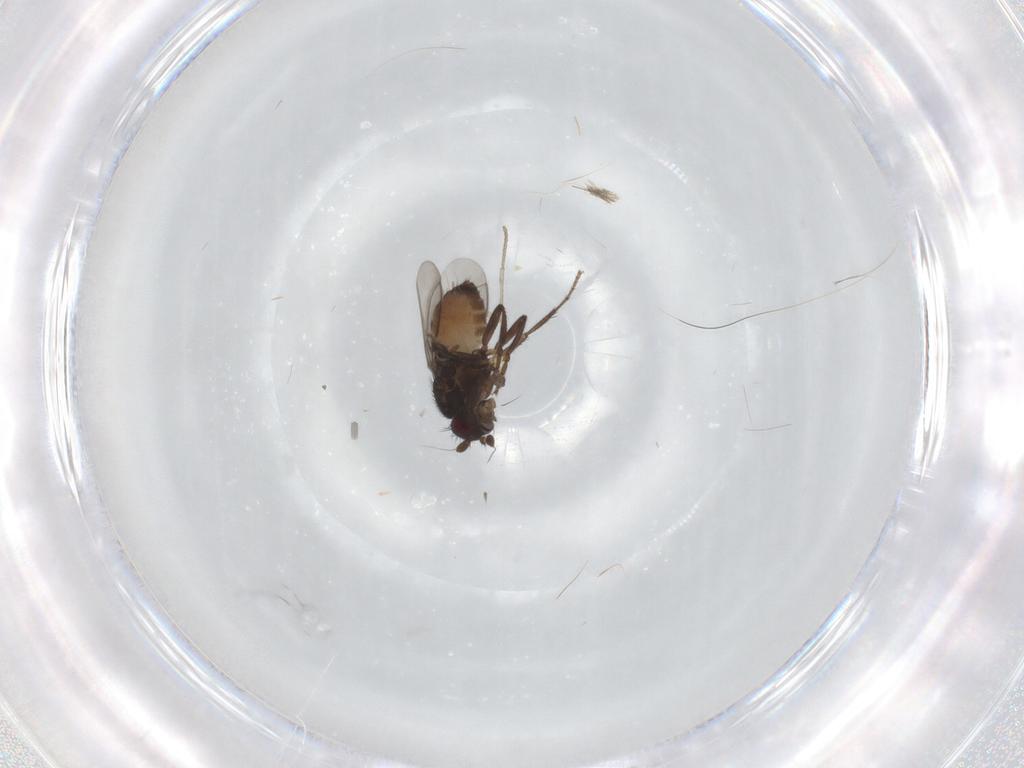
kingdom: Animalia
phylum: Arthropoda
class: Insecta
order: Diptera
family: Sphaeroceridae
